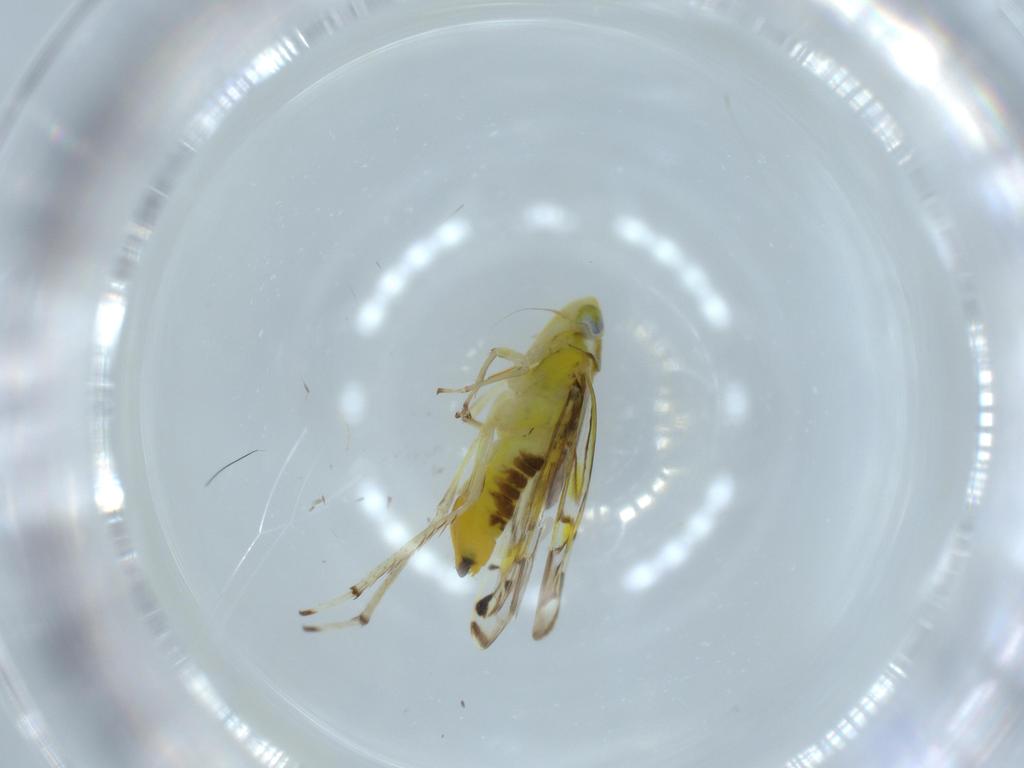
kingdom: Animalia
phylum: Arthropoda
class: Insecta
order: Hemiptera
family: Cicadellidae
